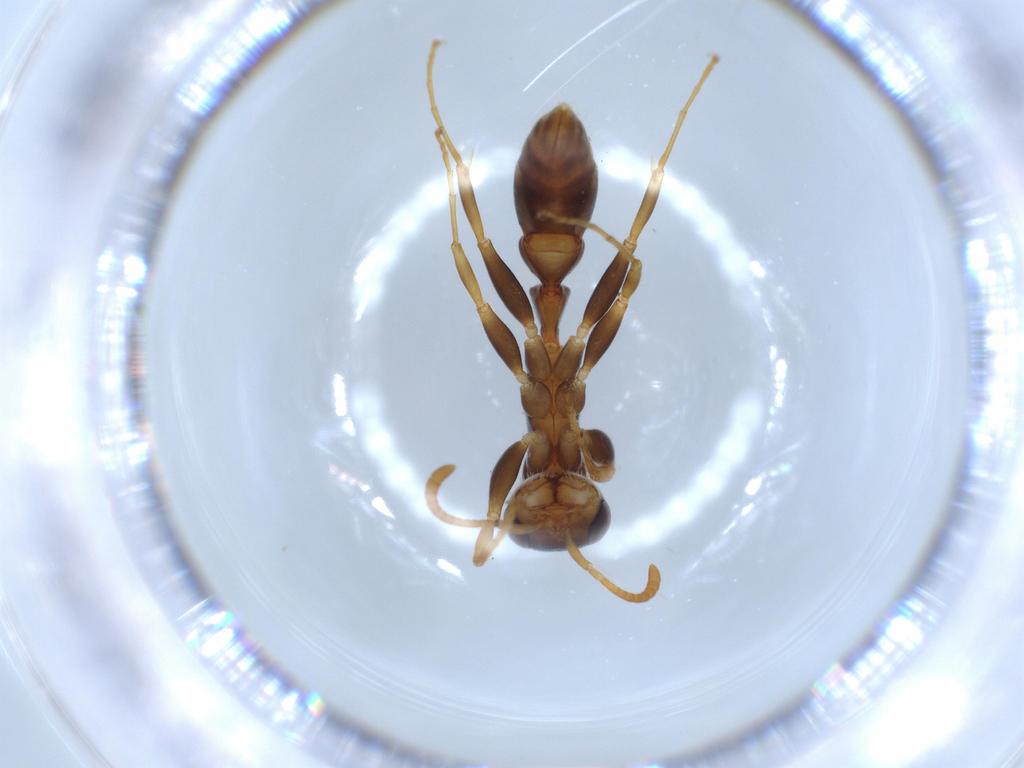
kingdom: Animalia
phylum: Arthropoda
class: Insecta
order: Hymenoptera
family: Formicidae
